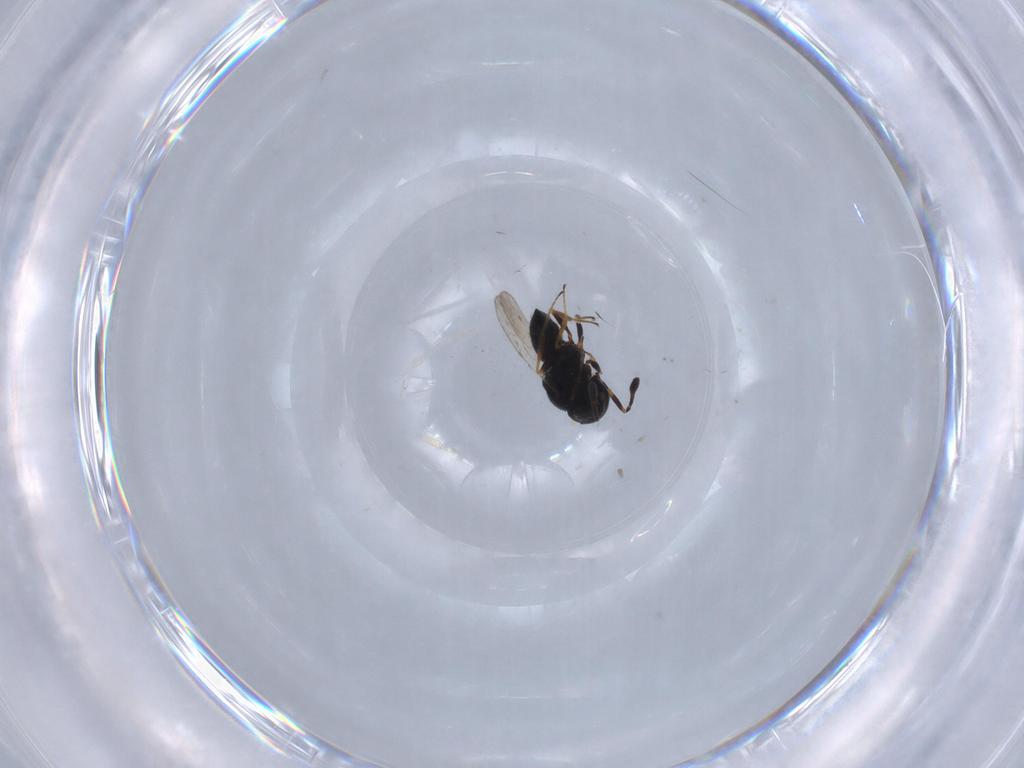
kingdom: Animalia
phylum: Arthropoda
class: Insecta
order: Hymenoptera
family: Scelionidae
